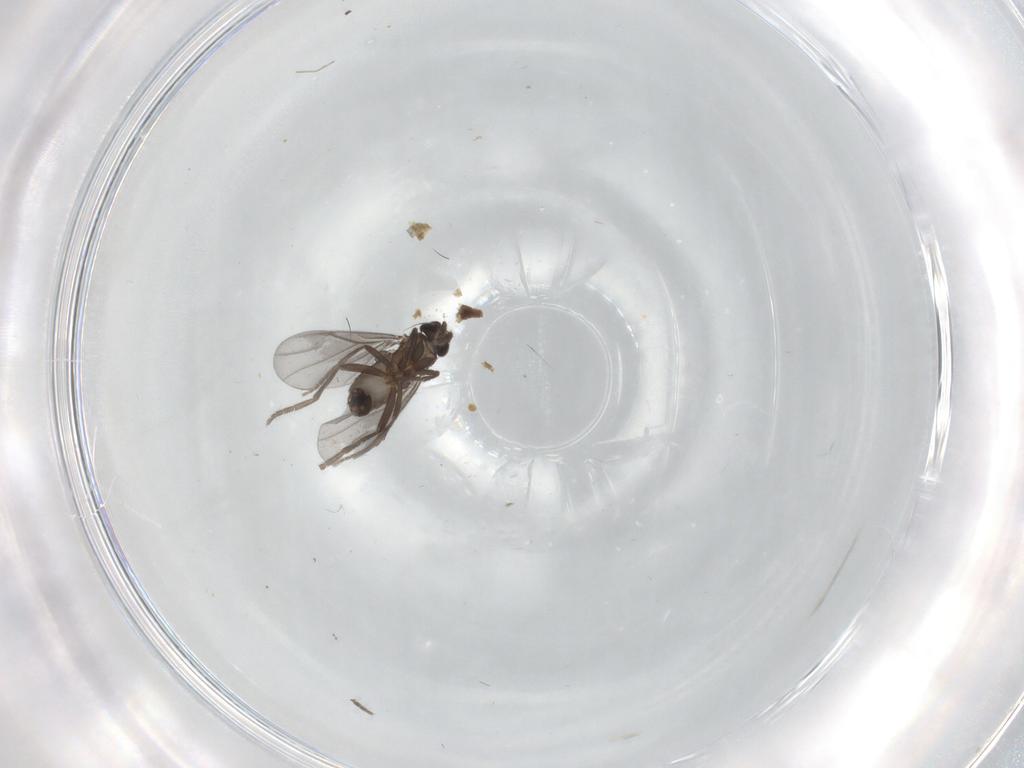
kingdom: Animalia
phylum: Arthropoda
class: Insecta
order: Diptera
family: Phoridae
